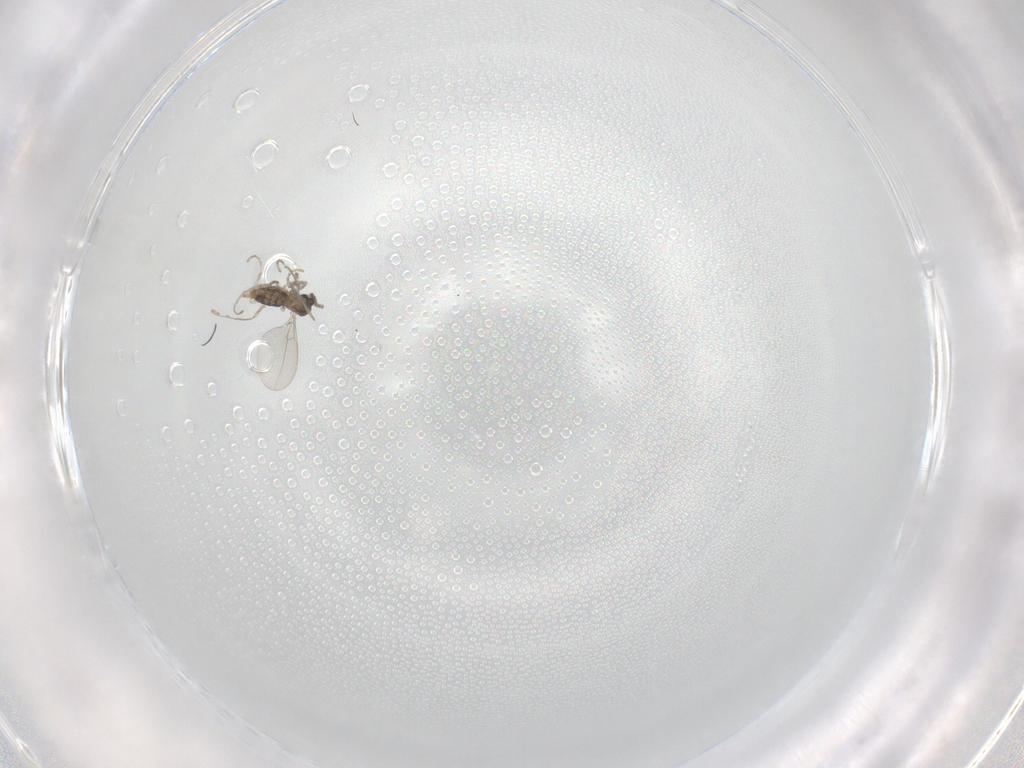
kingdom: Animalia
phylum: Arthropoda
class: Insecta
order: Diptera
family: Cecidomyiidae
